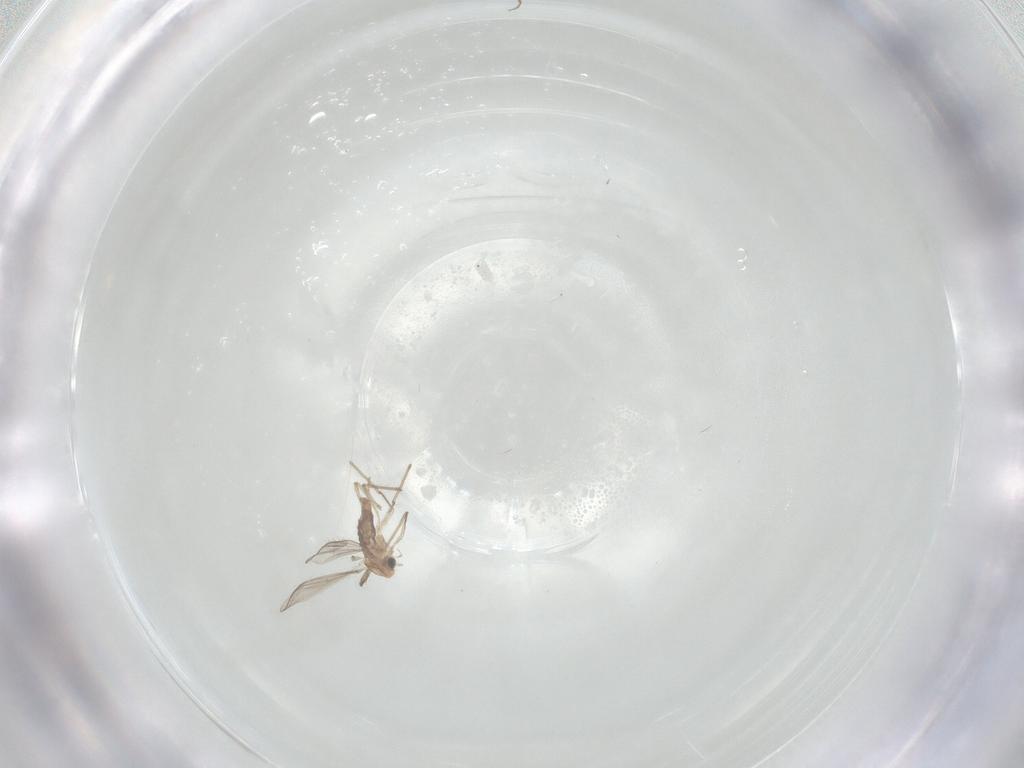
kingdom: Animalia
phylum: Arthropoda
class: Insecta
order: Diptera
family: Chironomidae
